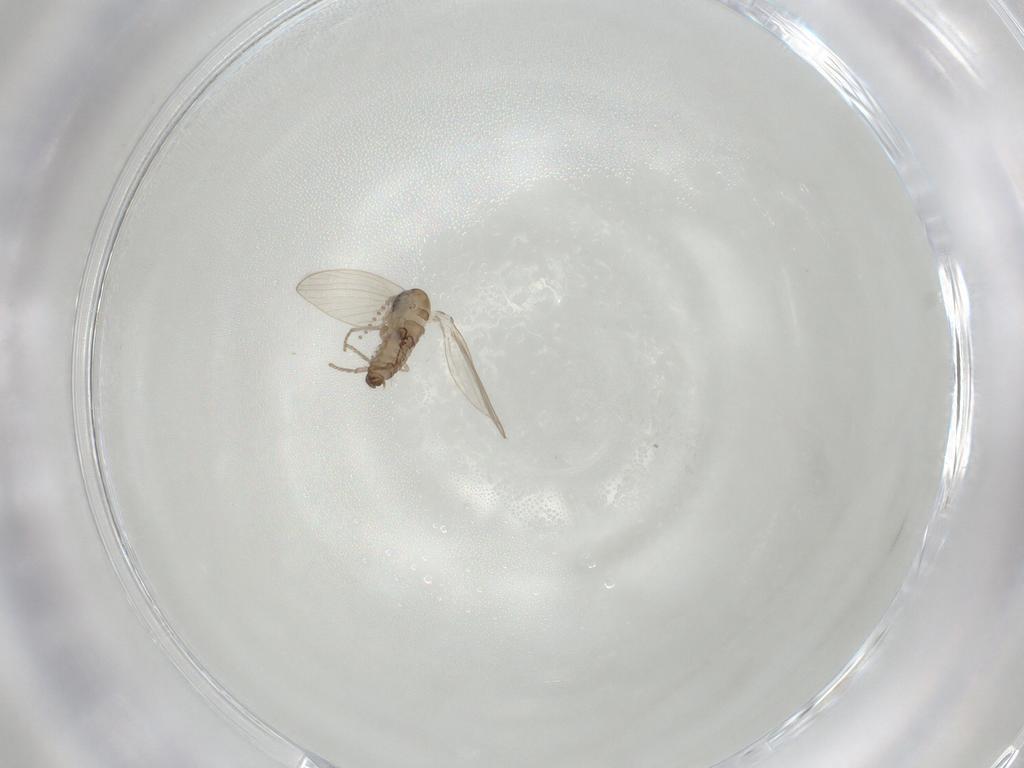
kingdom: Animalia
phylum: Arthropoda
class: Insecta
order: Diptera
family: Psychodidae
